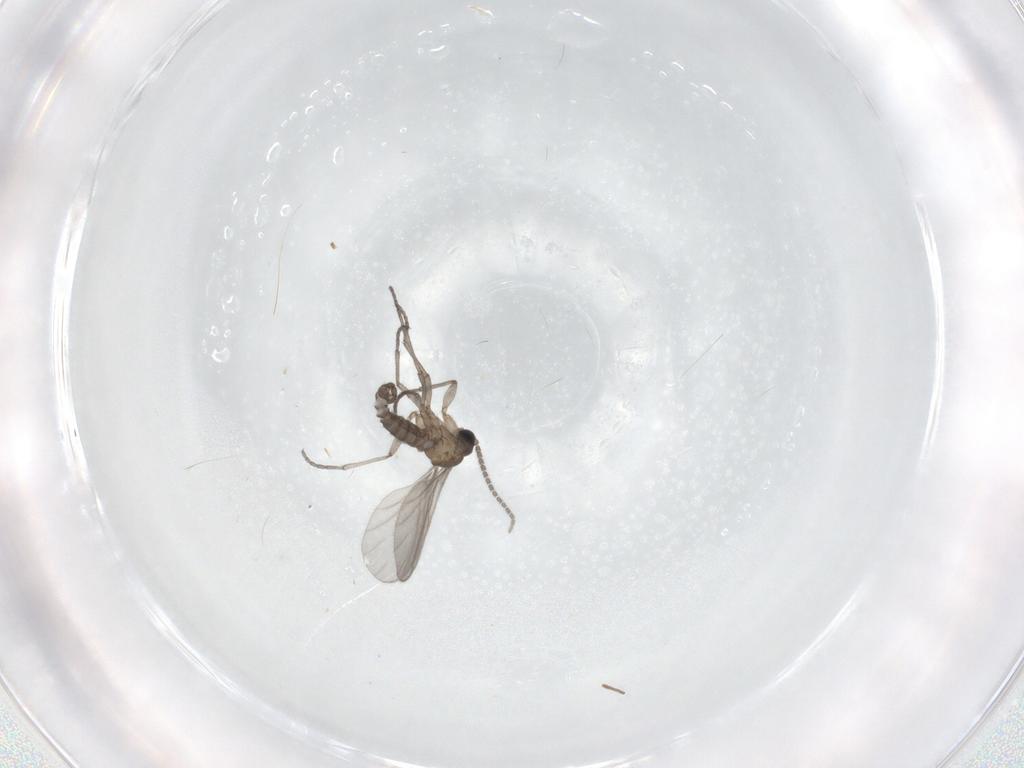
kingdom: Animalia
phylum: Arthropoda
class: Insecta
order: Diptera
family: Sciaridae
